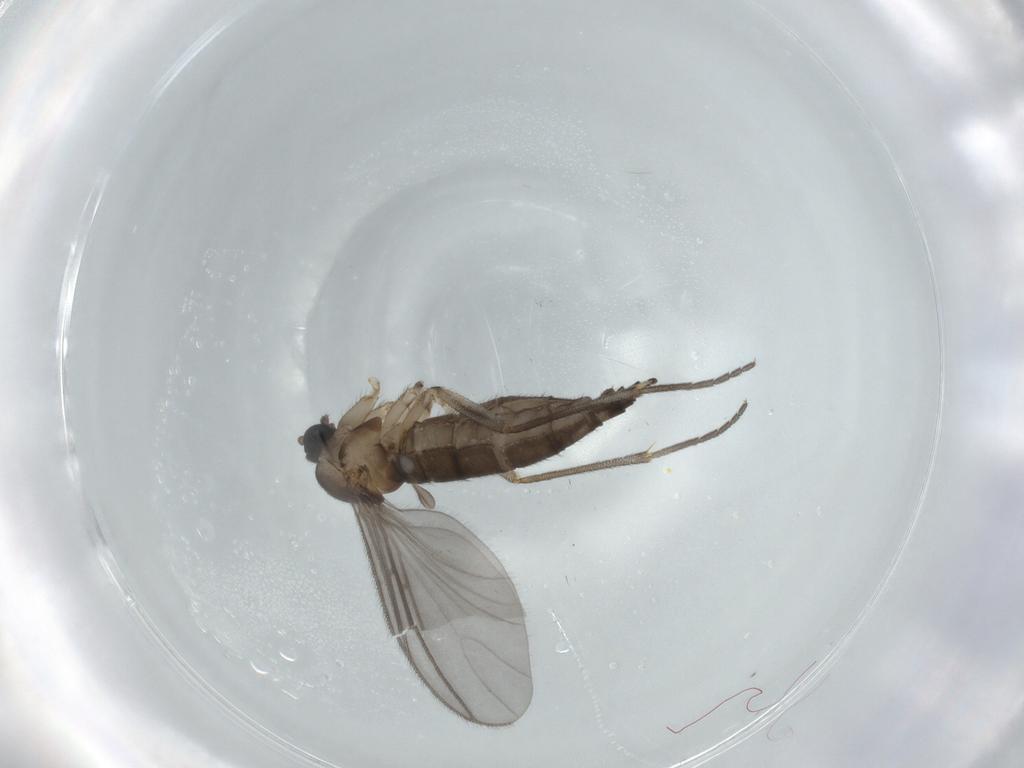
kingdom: Animalia
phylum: Arthropoda
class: Insecta
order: Diptera
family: Sciaridae
